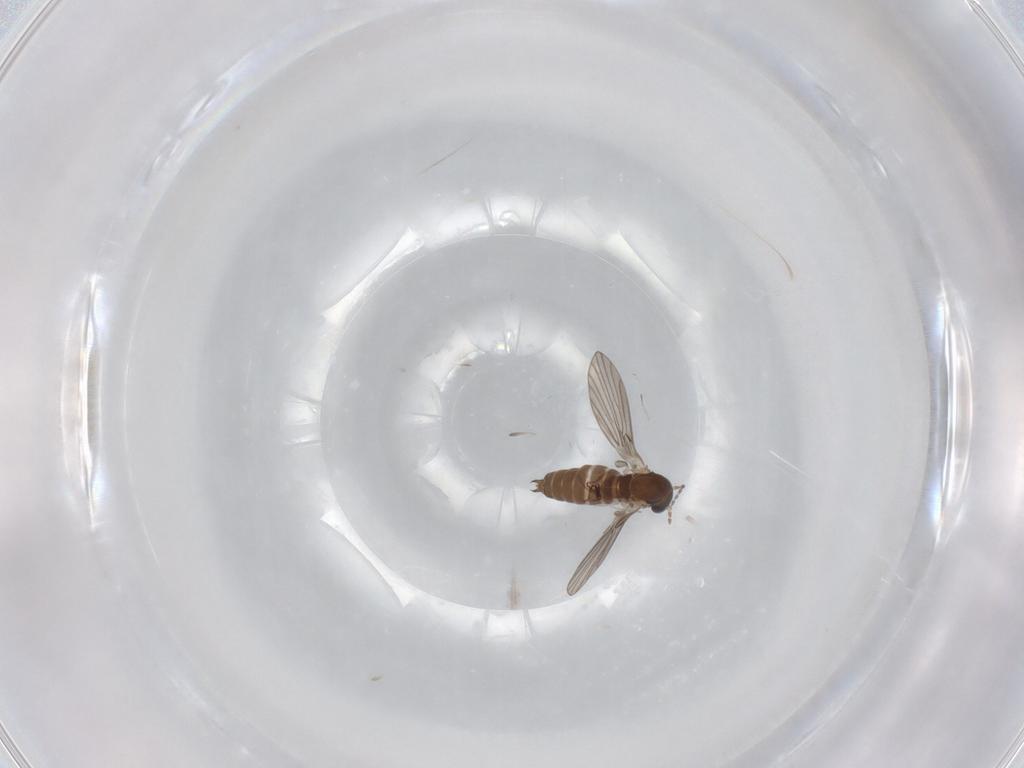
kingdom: Animalia
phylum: Arthropoda
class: Insecta
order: Diptera
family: Tabanidae
